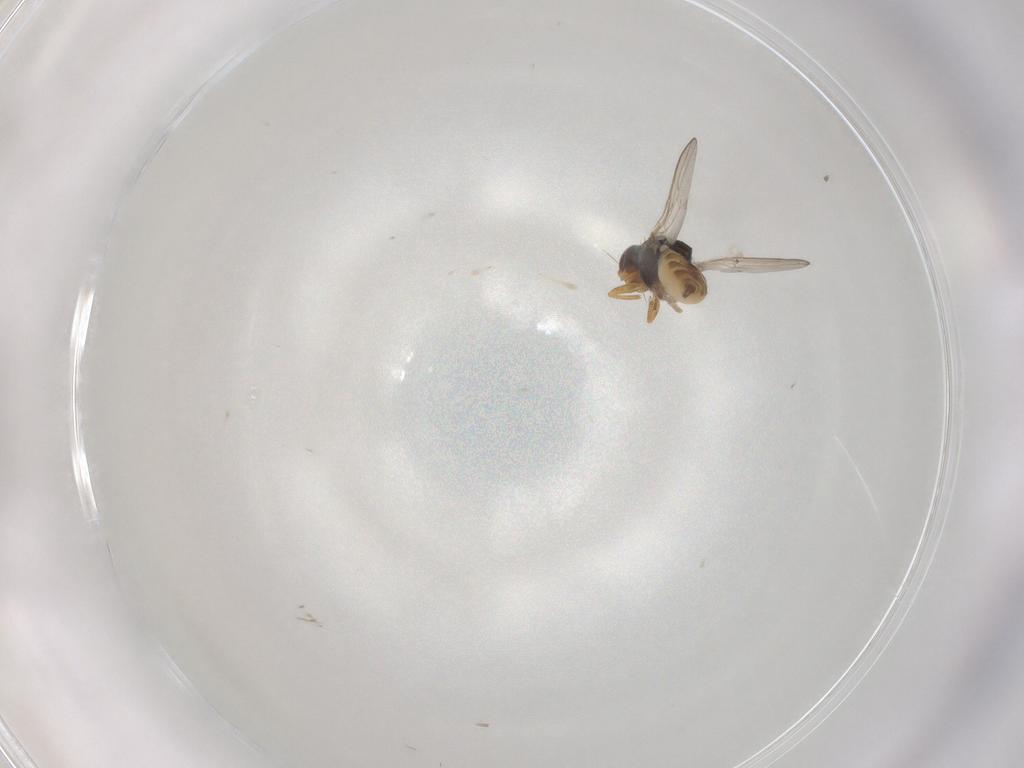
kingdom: Animalia
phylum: Arthropoda
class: Insecta
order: Diptera
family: Chloropidae
